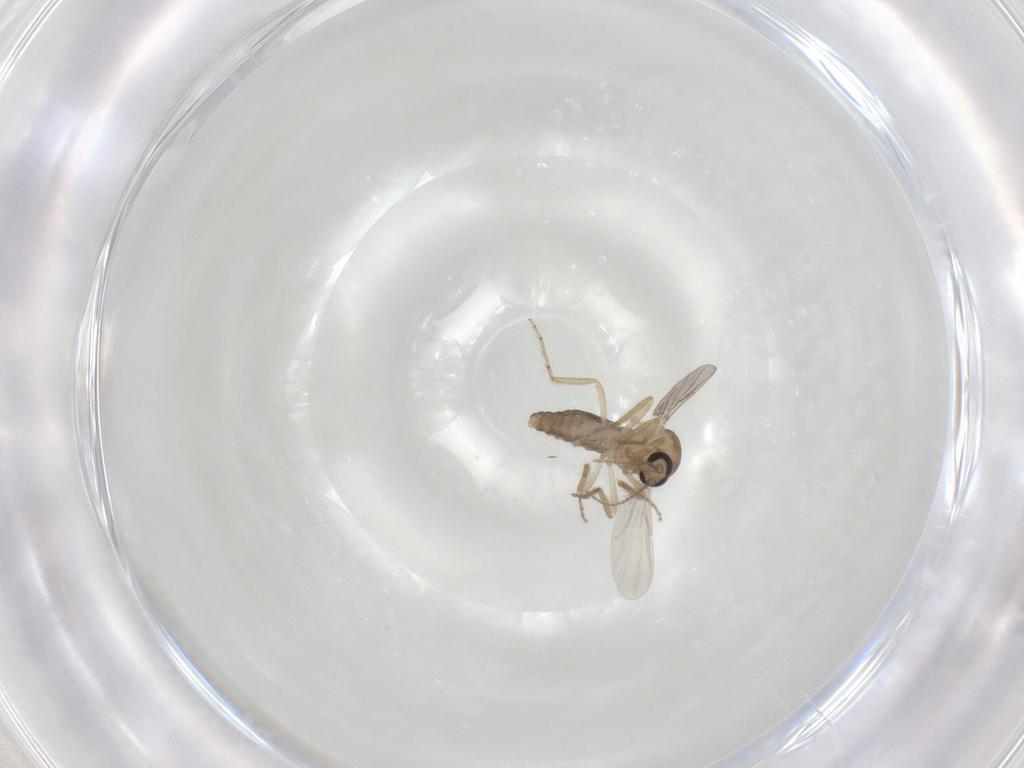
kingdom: Animalia
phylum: Arthropoda
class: Insecta
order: Diptera
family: Ceratopogonidae
